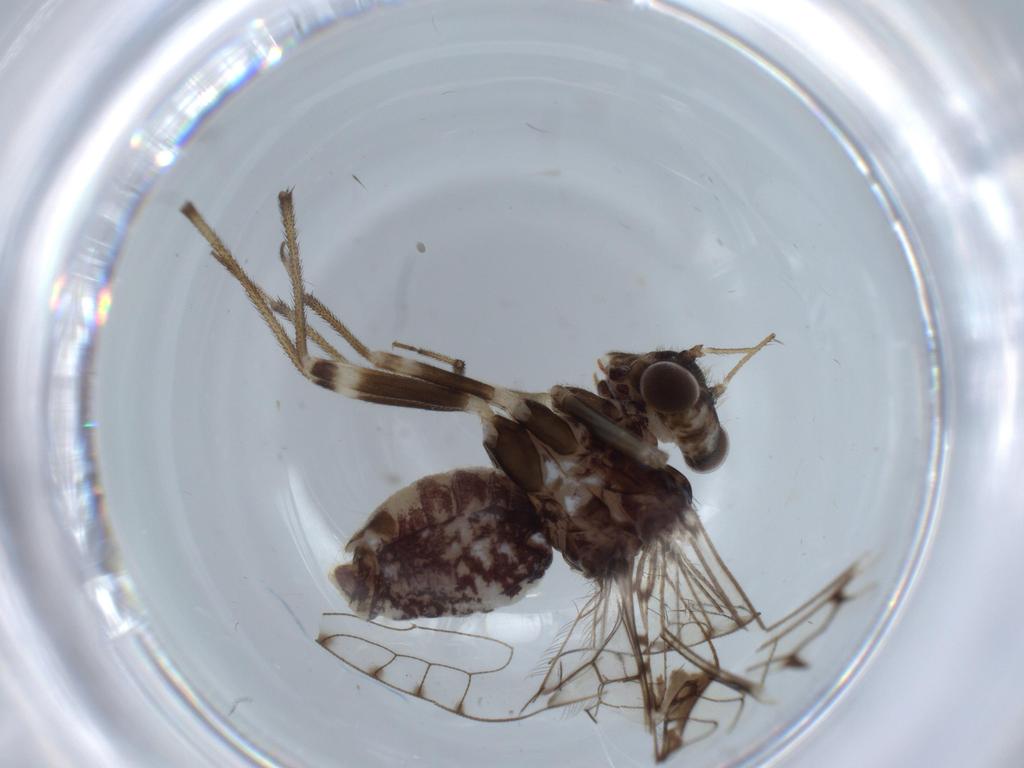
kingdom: Animalia
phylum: Arthropoda
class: Insecta
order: Psocodea
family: Ptiloneuridae
